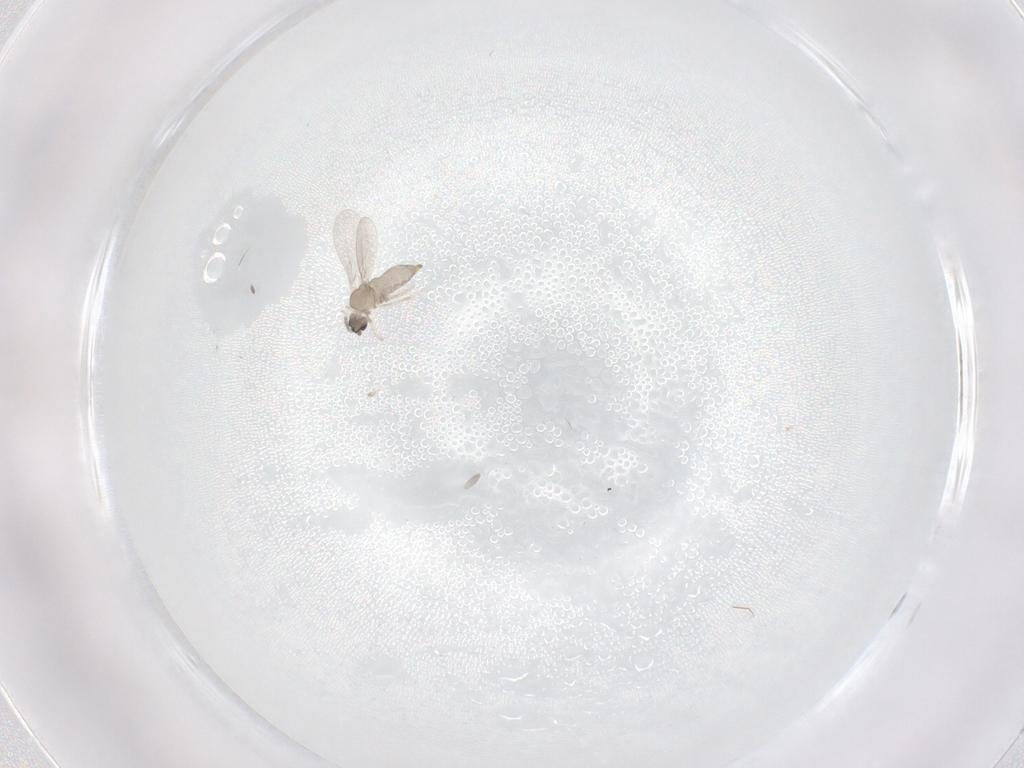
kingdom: Animalia
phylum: Arthropoda
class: Insecta
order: Diptera
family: Cecidomyiidae
